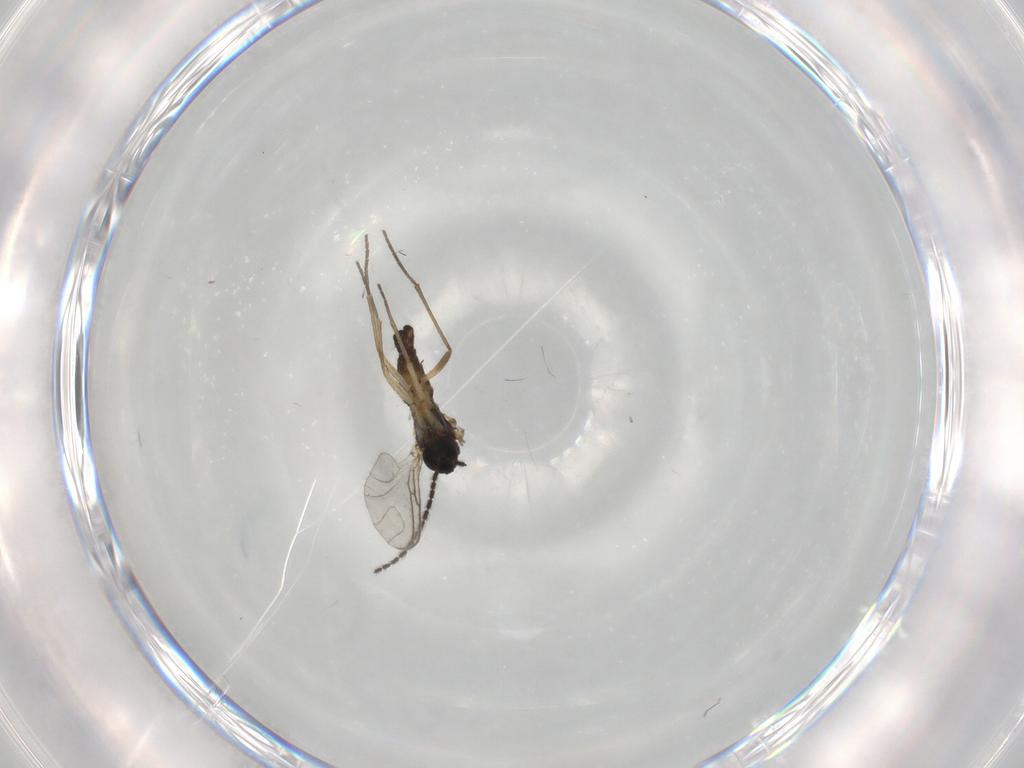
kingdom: Animalia
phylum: Arthropoda
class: Insecta
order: Diptera
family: Sciaridae
